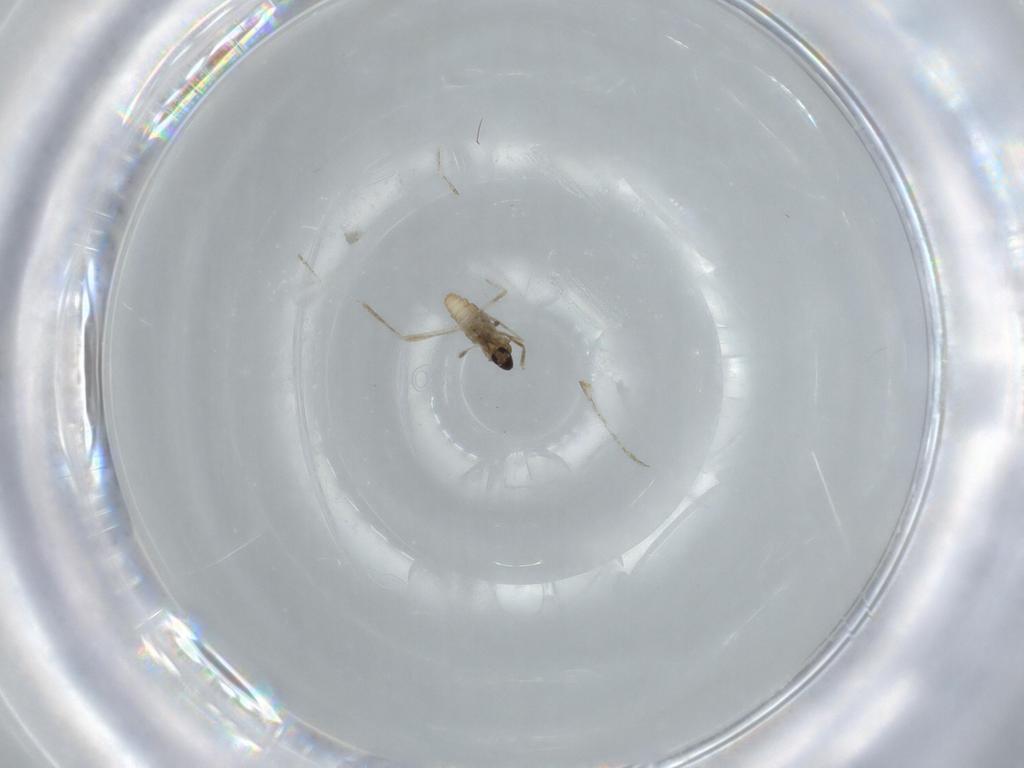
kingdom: Animalia
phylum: Arthropoda
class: Insecta
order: Diptera
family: Cecidomyiidae
